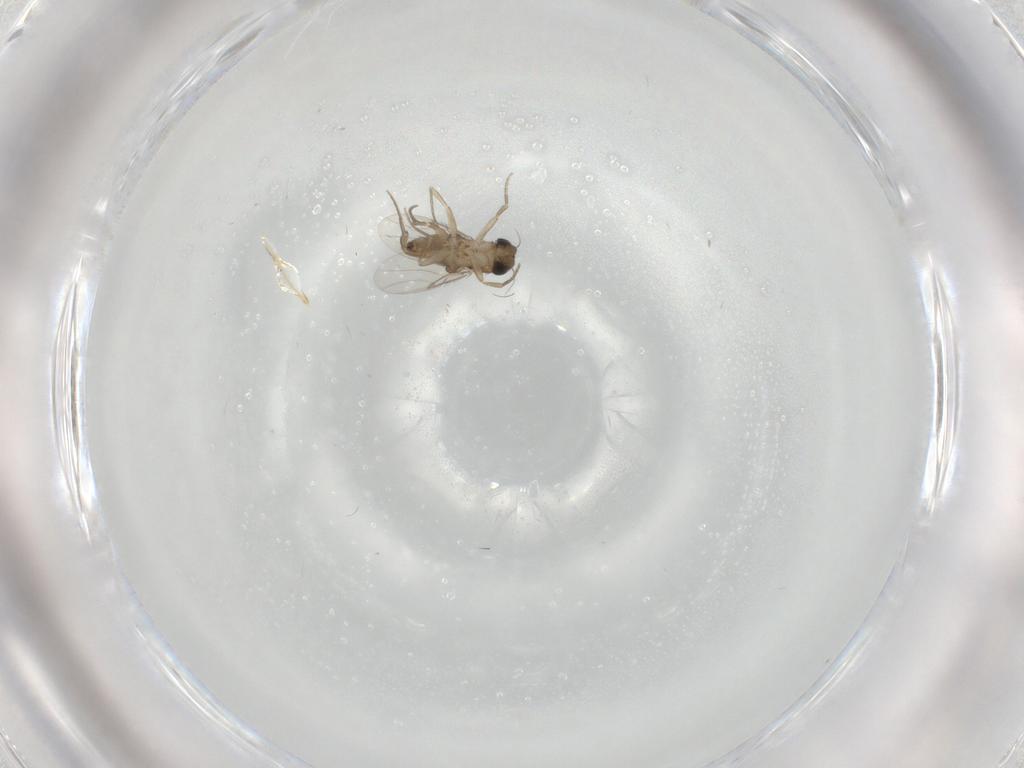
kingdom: Animalia
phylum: Arthropoda
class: Insecta
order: Diptera
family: Phoridae
